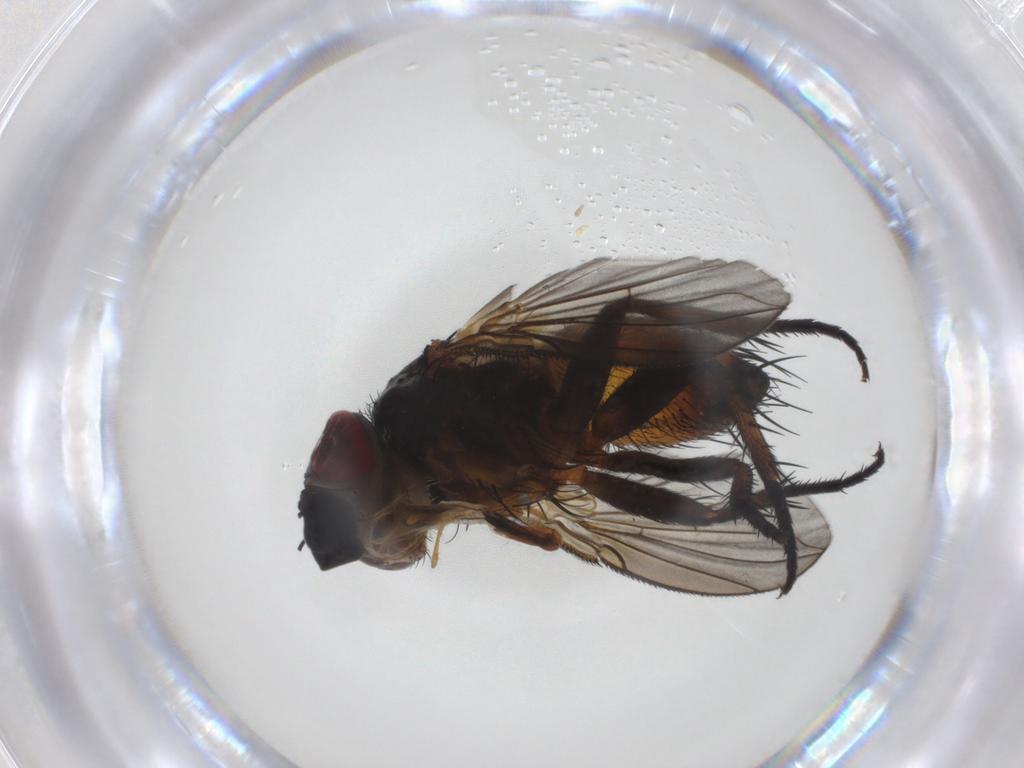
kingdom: Animalia
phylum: Arthropoda
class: Insecta
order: Diptera
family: Tachinidae
